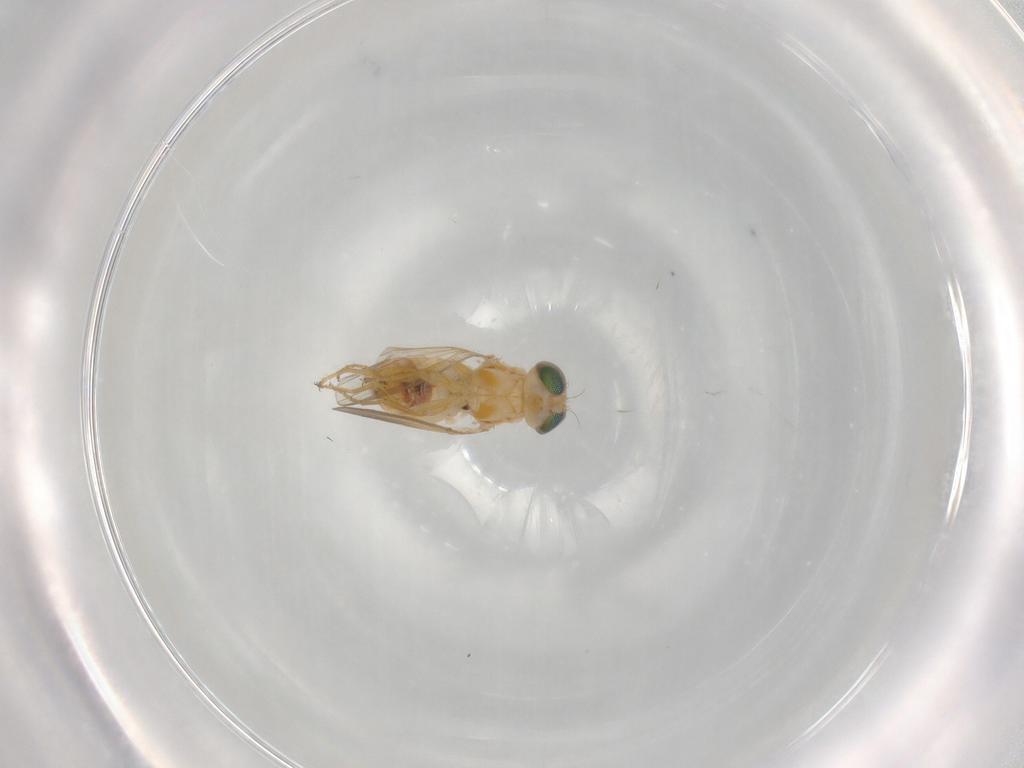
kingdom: Animalia
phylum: Arthropoda
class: Insecta
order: Diptera
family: Chyromyidae
